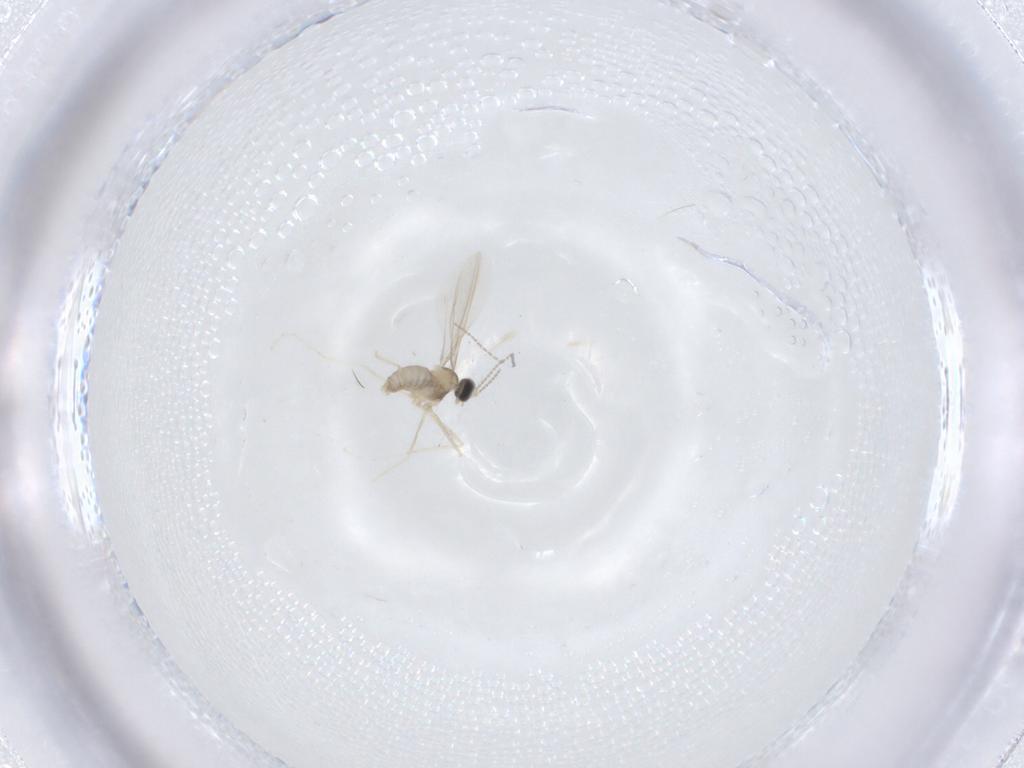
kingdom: Animalia
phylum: Arthropoda
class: Insecta
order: Diptera
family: Cecidomyiidae
